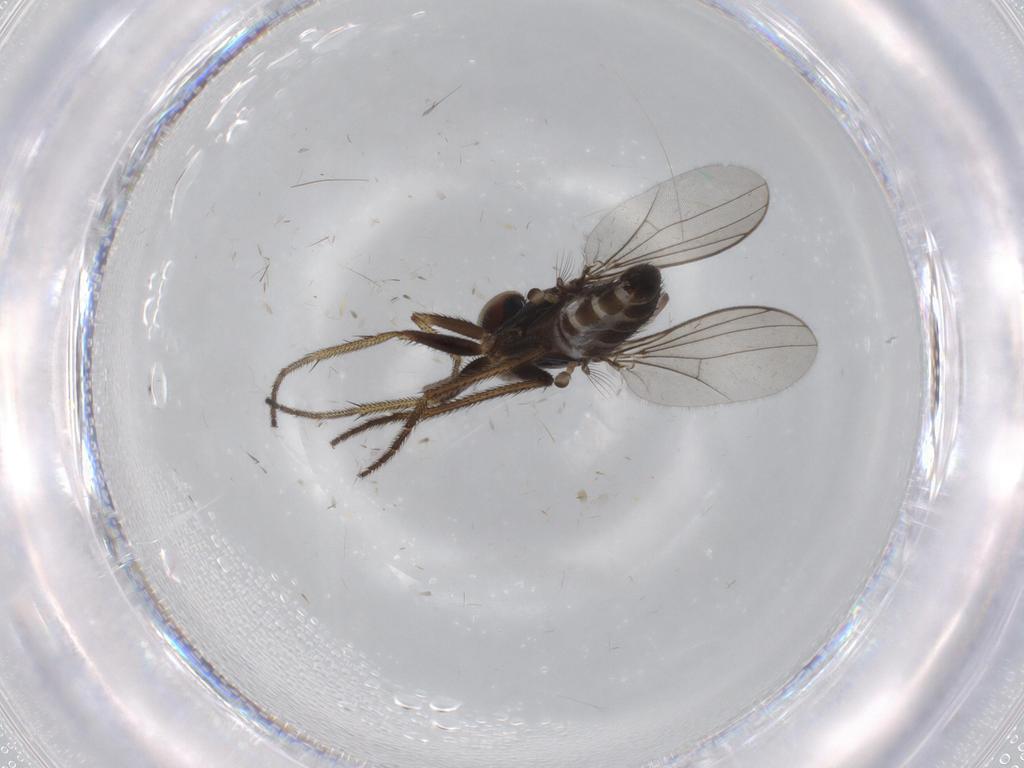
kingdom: Animalia
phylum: Arthropoda
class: Insecta
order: Diptera
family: Dolichopodidae
